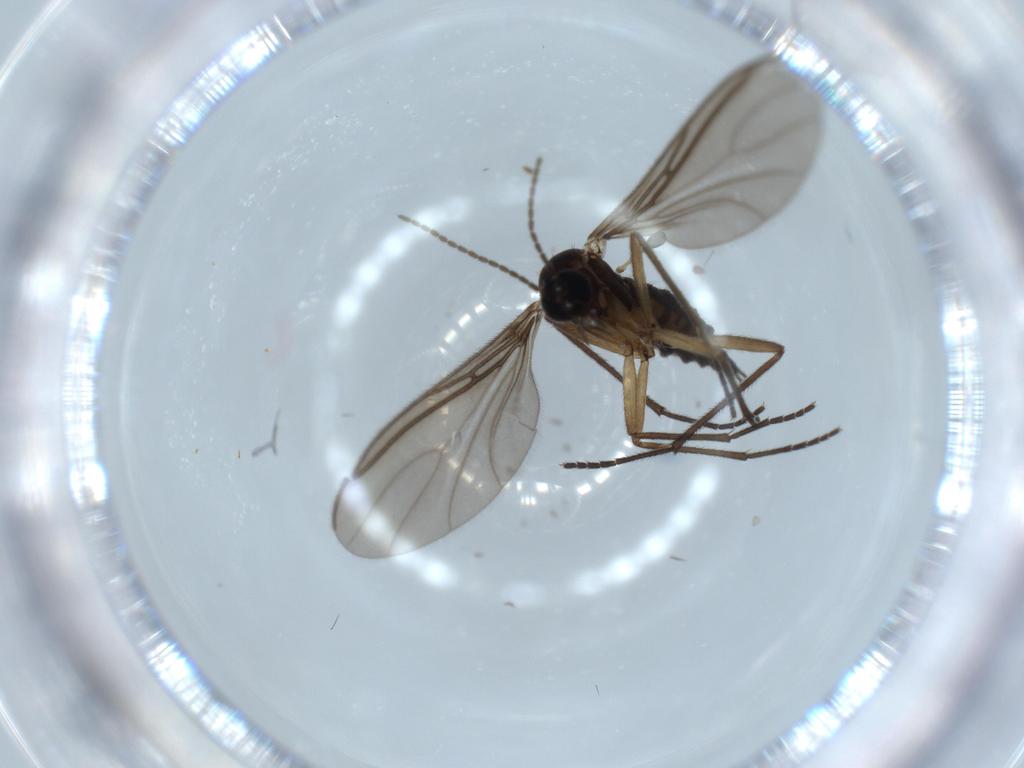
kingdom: Animalia
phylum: Arthropoda
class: Insecta
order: Diptera
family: Sciaridae
